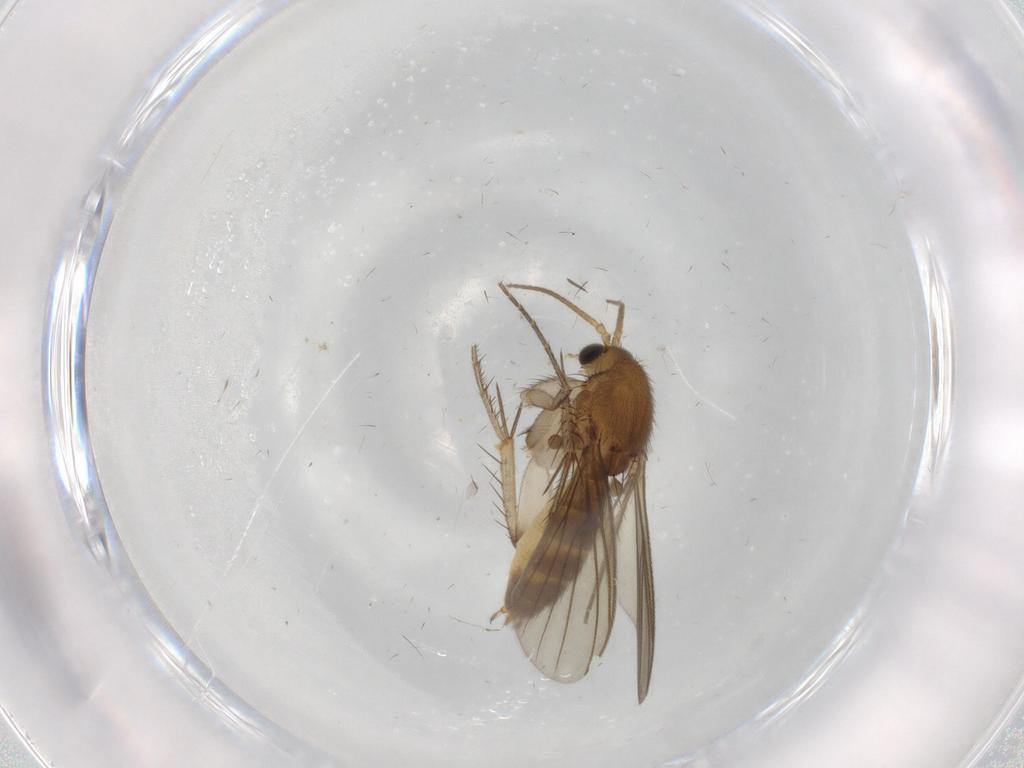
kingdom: Animalia
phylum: Arthropoda
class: Insecta
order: Diptera
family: Mycetophilidae
